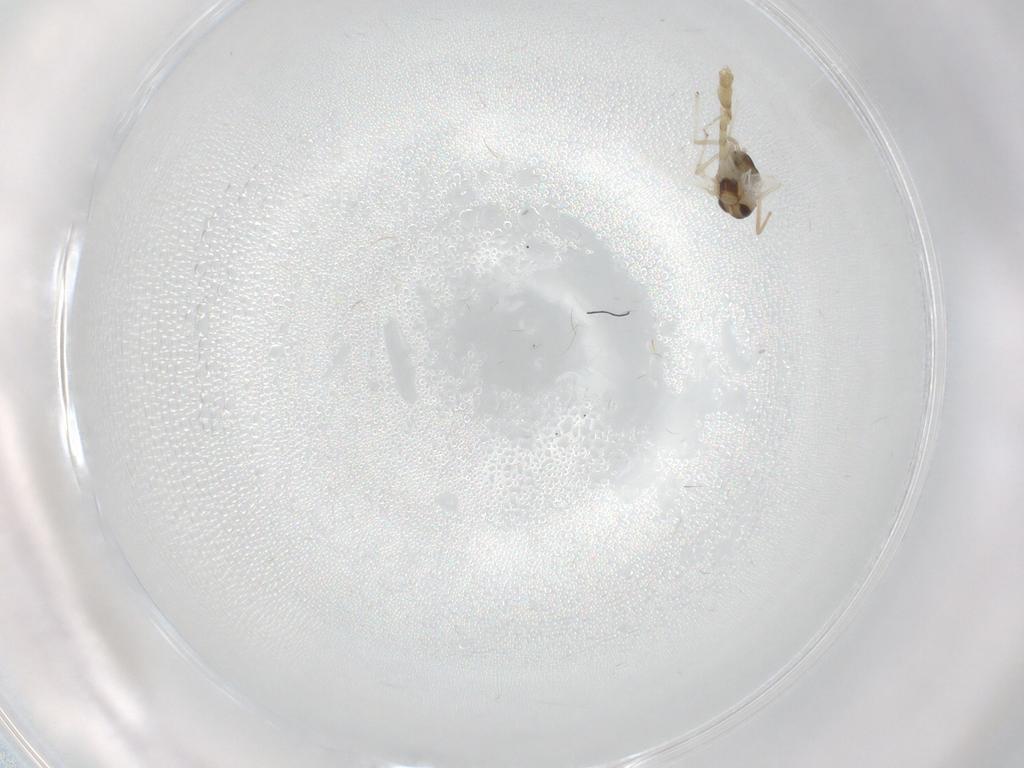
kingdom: Animalia
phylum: Arthropoda
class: Insecta
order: Diptera
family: Chironomidae
